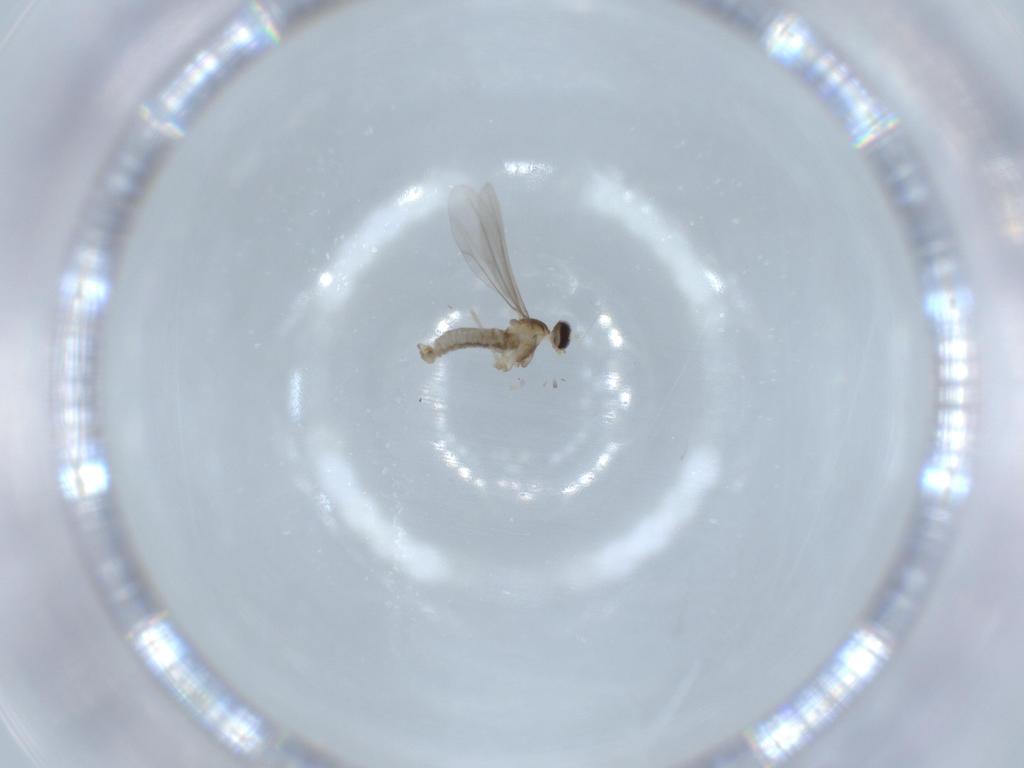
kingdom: Animalia
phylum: Arthropoda
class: Insecta
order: Diptera
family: Cecidomyiidae
